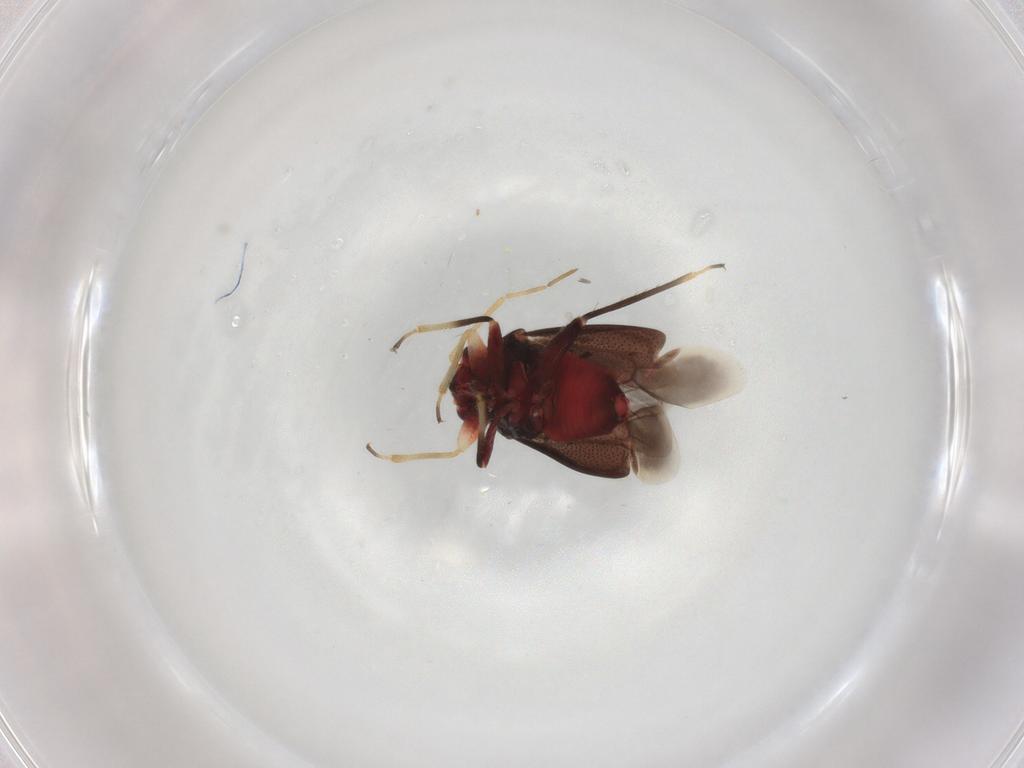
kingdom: Animalia
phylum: Arthropoda
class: Insecta
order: Hemiptera
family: Miridae
